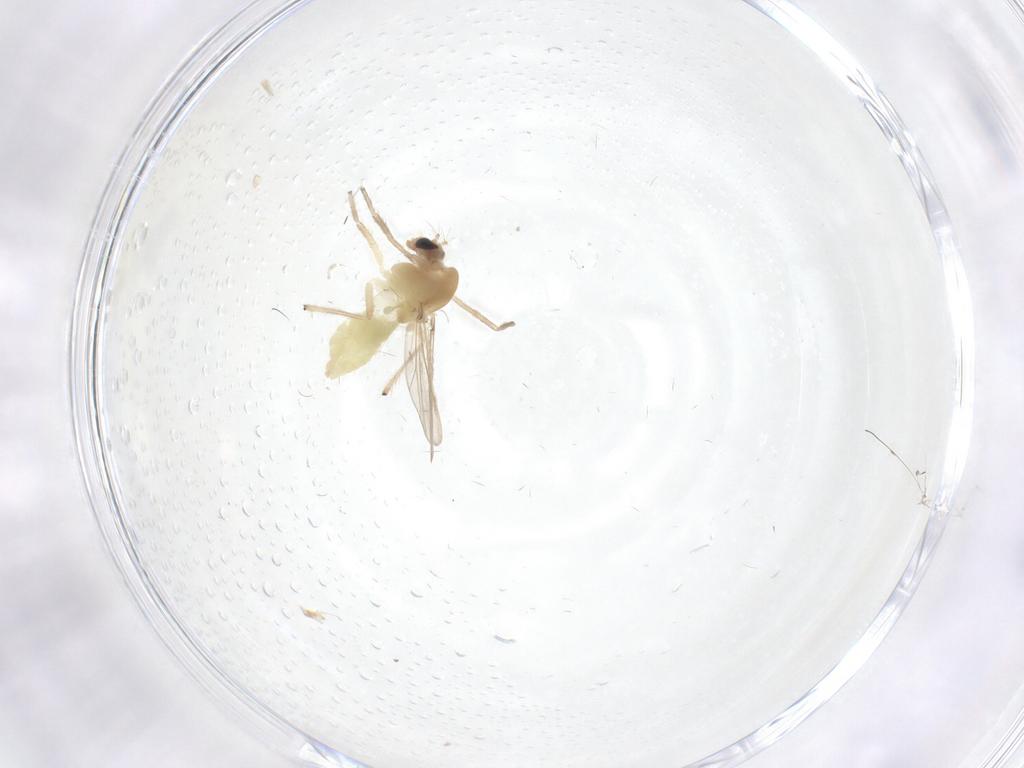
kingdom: Animalia
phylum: Arthropoda
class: Insecta
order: Diptera
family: Chironomidae
